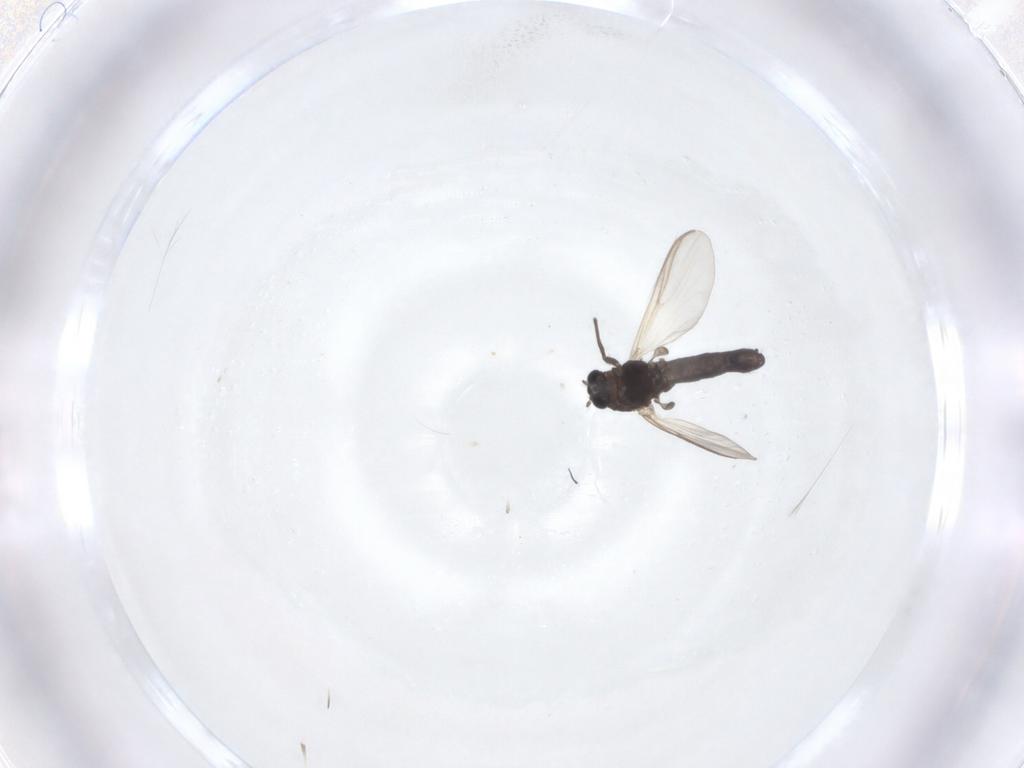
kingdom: Animalia
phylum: Arthropoda
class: Insecta
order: Diptera
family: Chironomidae
